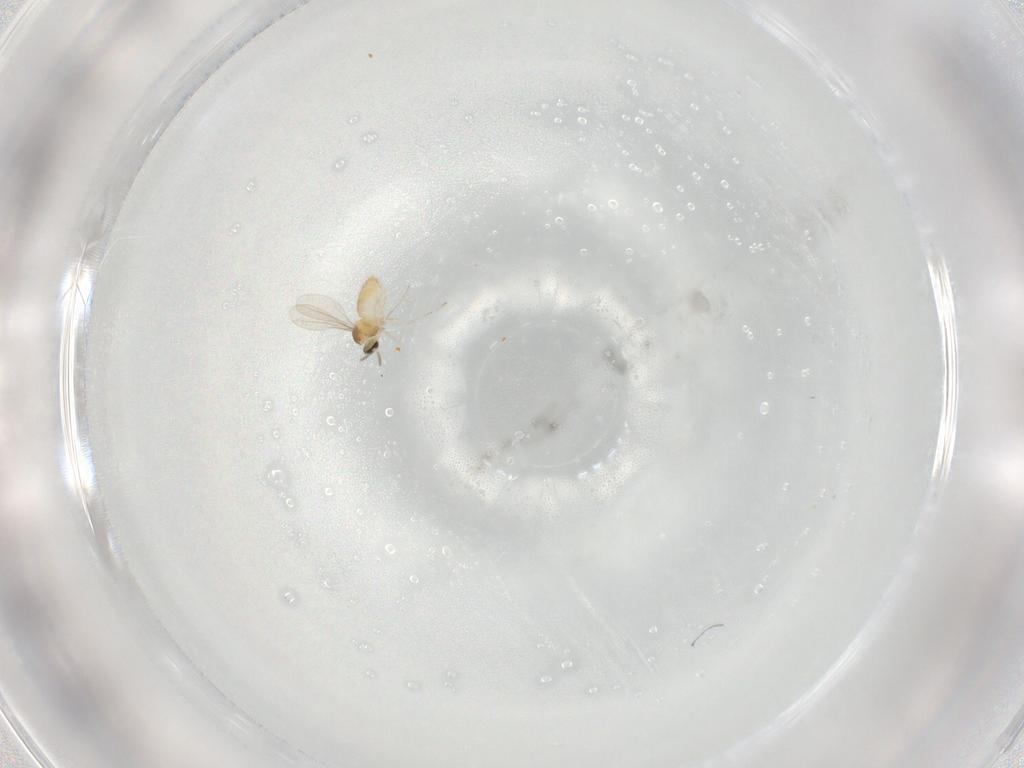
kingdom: Animalia
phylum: Arthropoda
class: Insecta
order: Diptera
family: Cecidomyiidae
